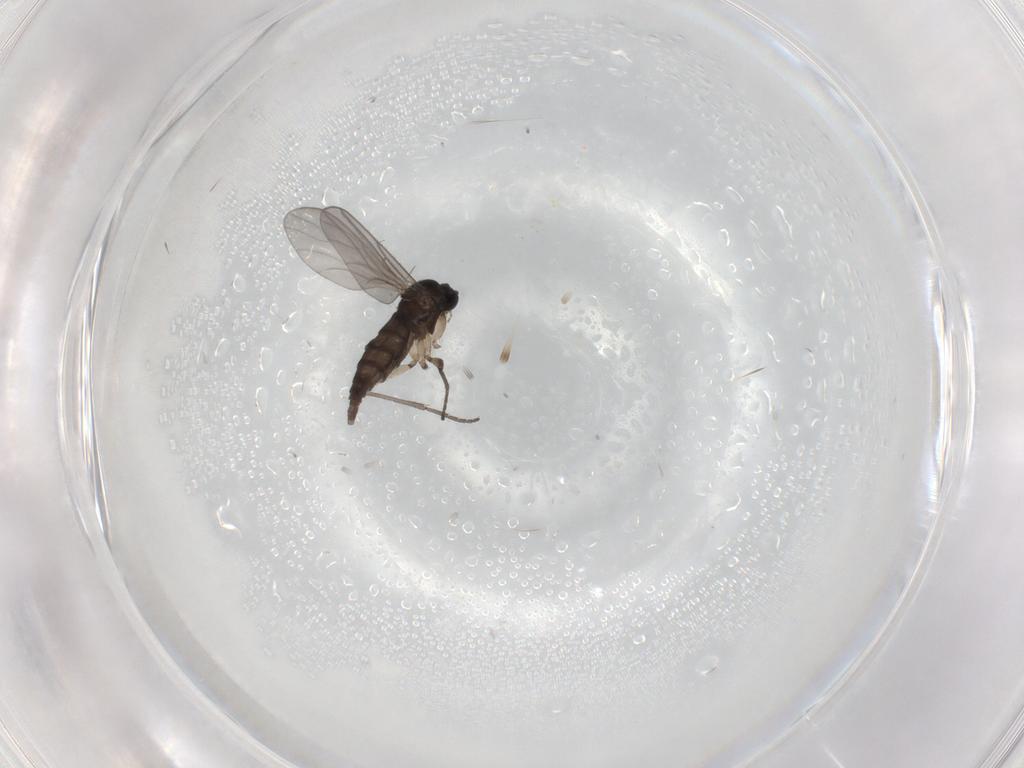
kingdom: Animalia
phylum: Arthropoda
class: Insecta
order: Diptera
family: Sciaridae
